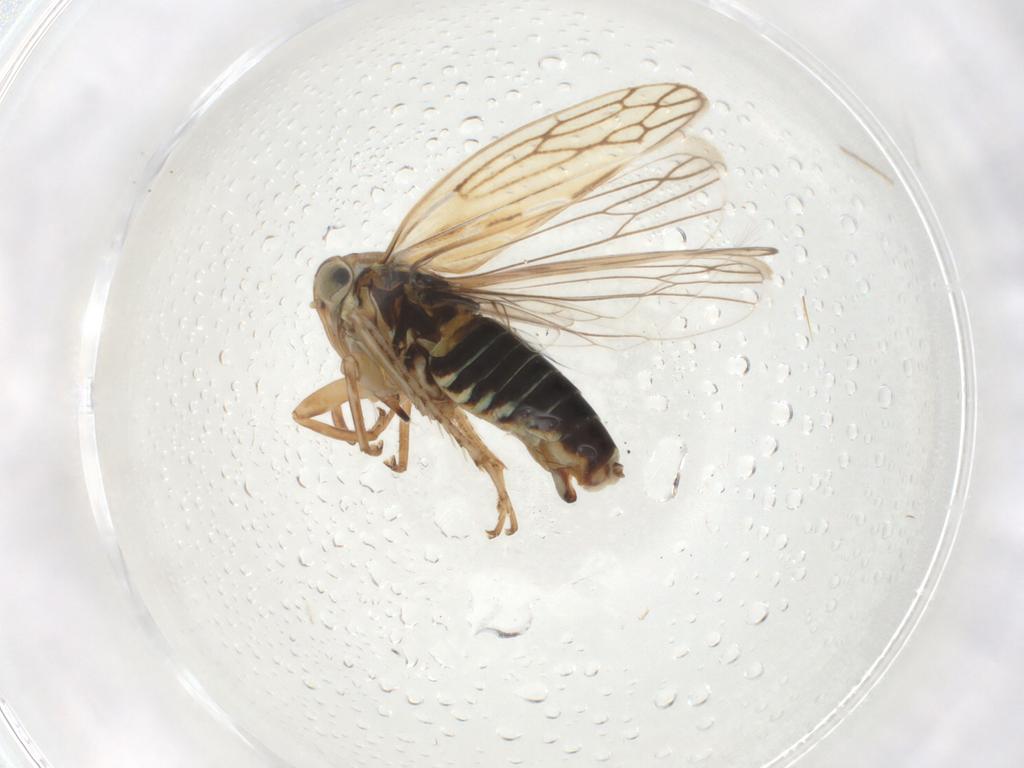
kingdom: Animalia
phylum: Arthropoda
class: Insecta
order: Hemiptera
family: Cicadellidae
